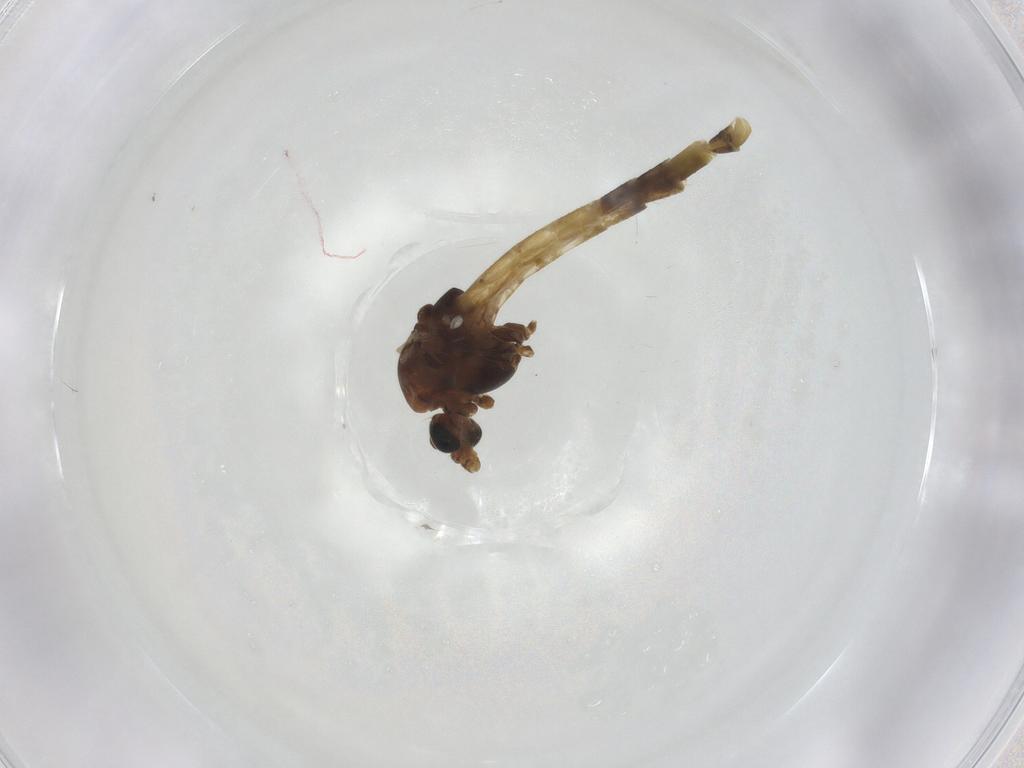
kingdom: Animalia
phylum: Arthropoda
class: Insecta
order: Diptera
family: Chironomidae
